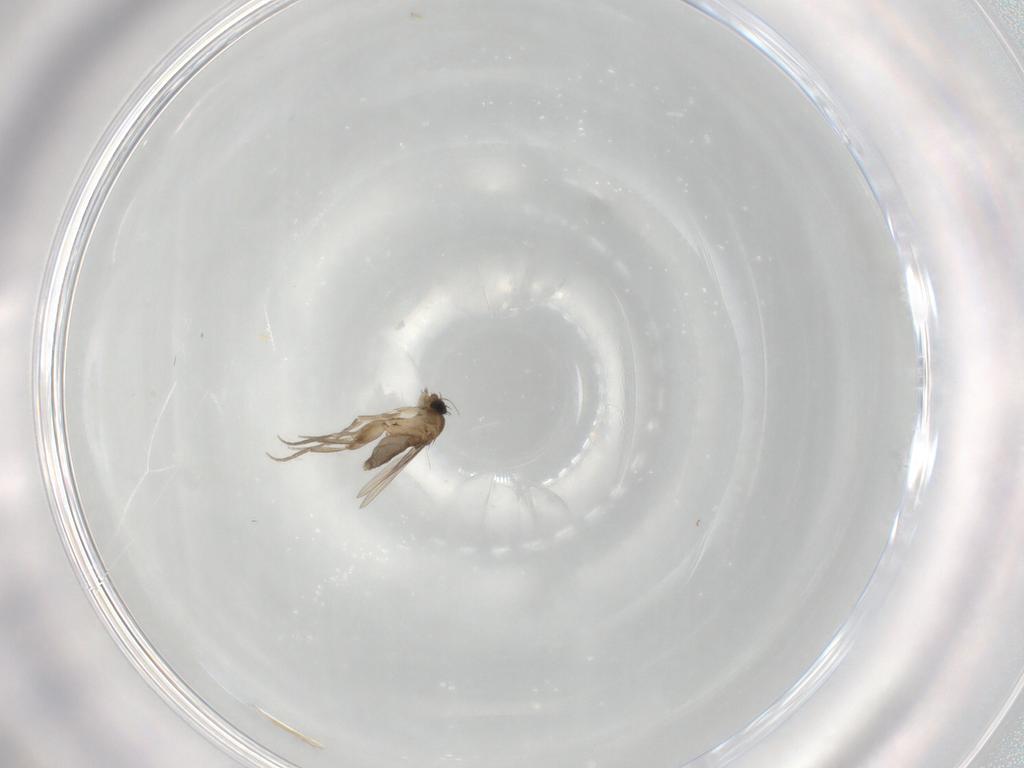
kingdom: Animalia
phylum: Arthropoda
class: Insecta
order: Diptera
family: Phoridae
